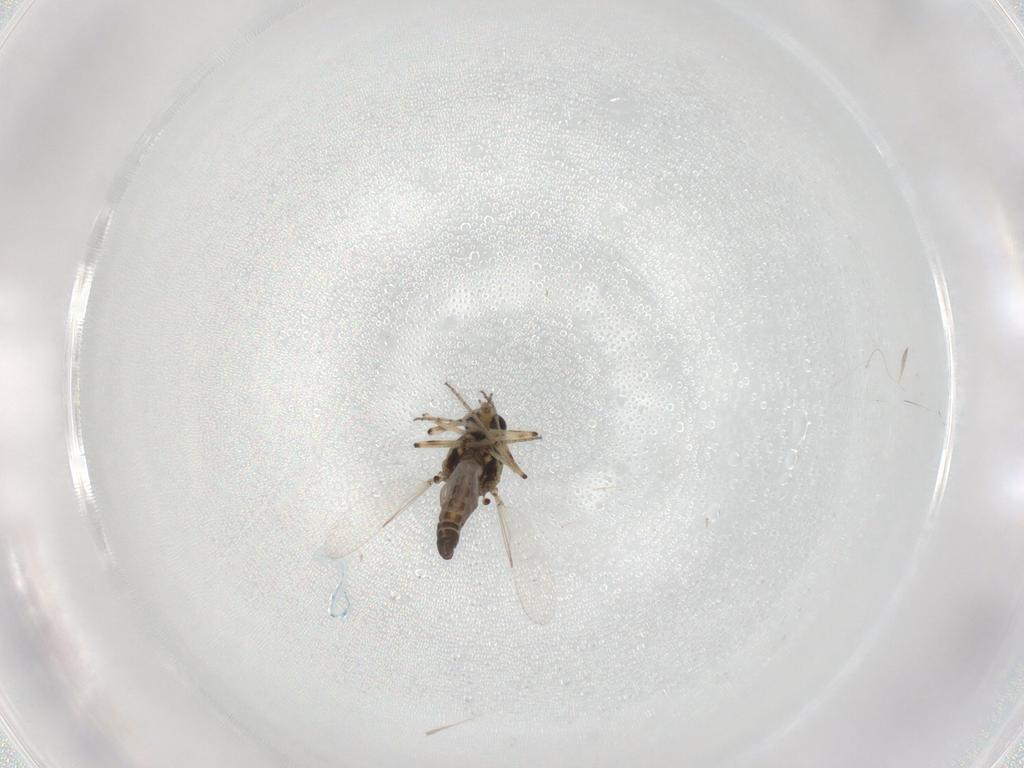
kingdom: Animalia
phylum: Arthropoda
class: Insecta
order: Diptera
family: Ceratopogonidae
